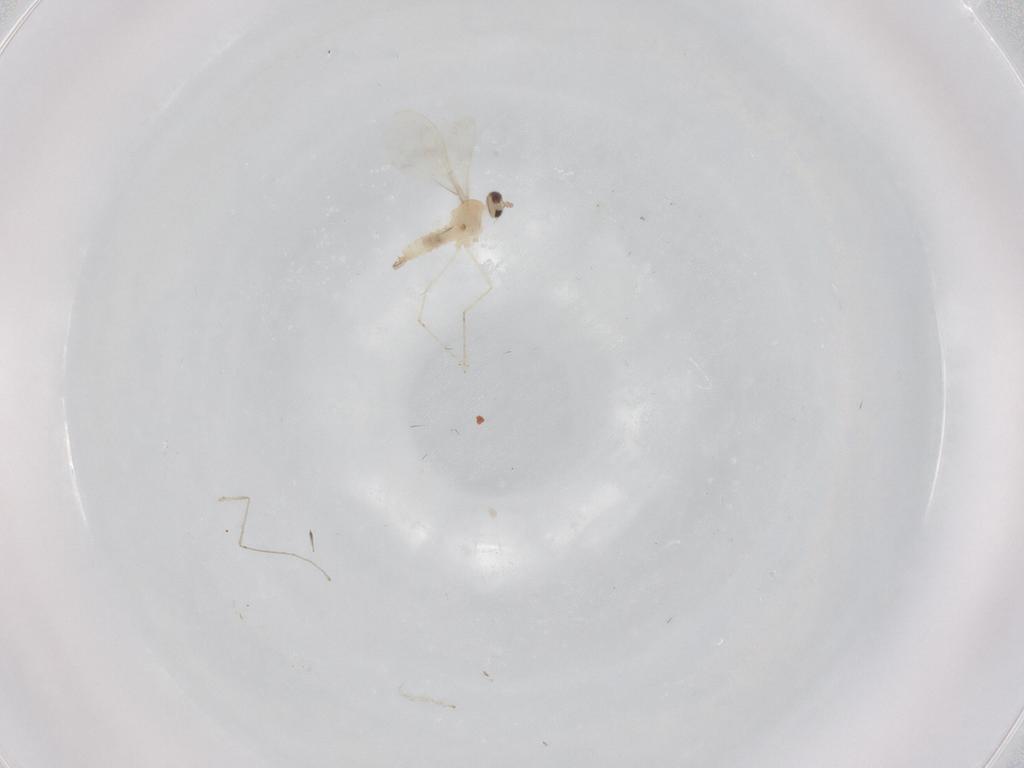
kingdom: Animalia
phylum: Arthropoda
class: Insecta
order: Diptera
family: Cecidomyiidae
